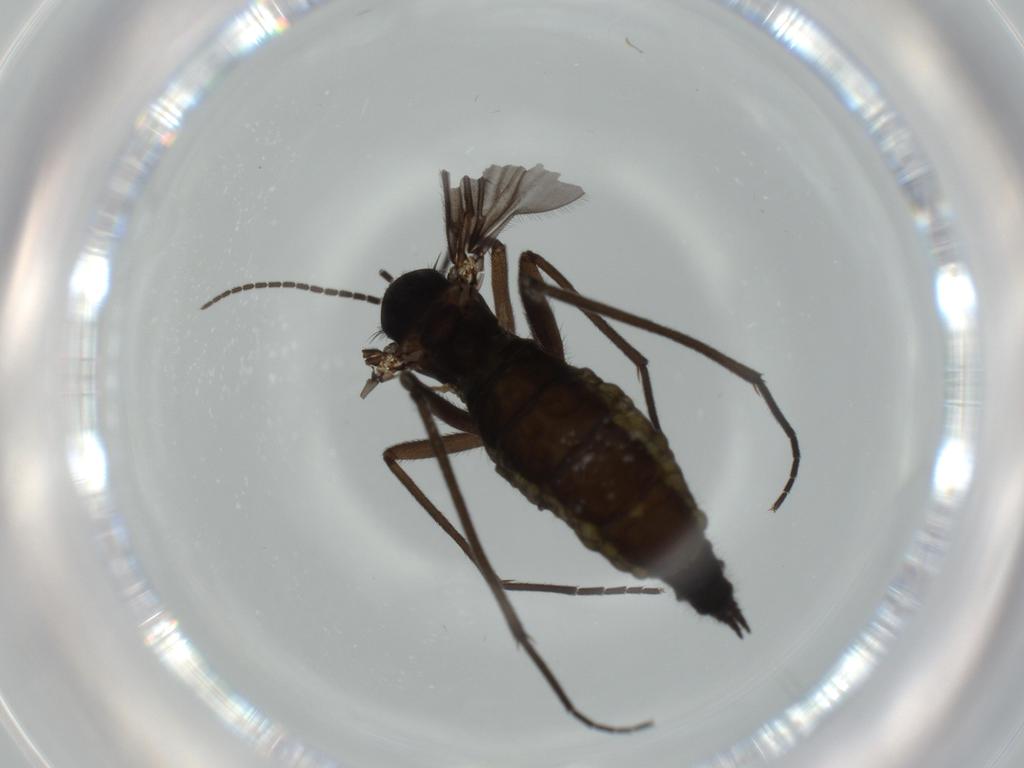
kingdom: Animalia
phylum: Arthropoda
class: Insecta
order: Diptera
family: Sciaridae
